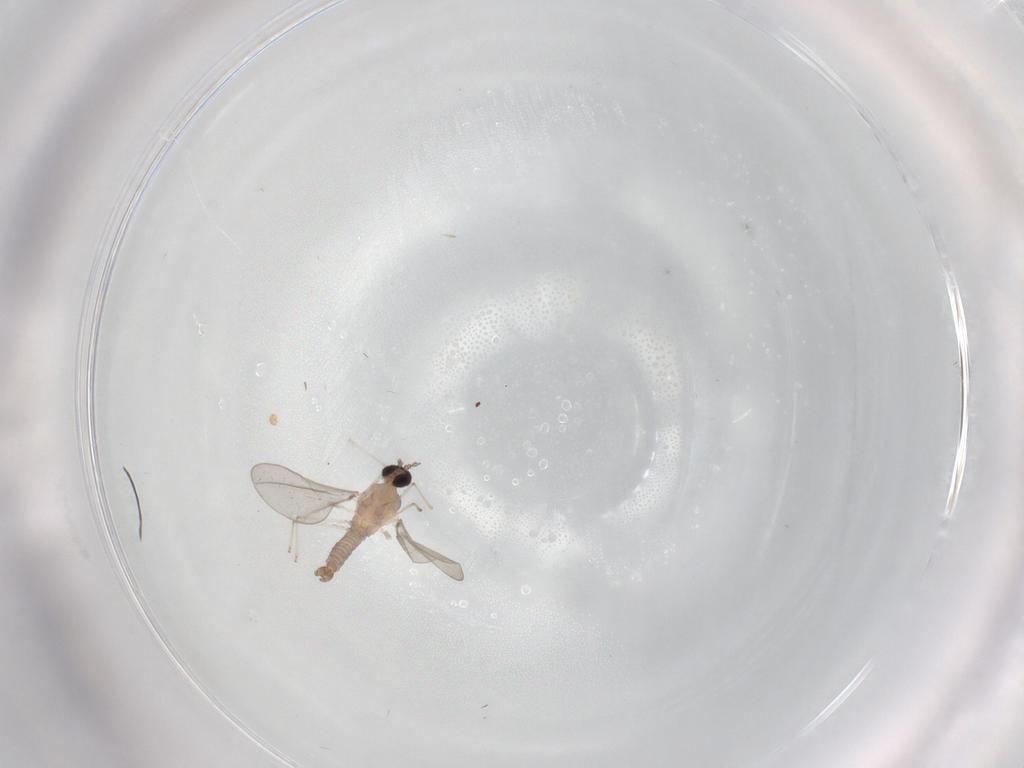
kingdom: Animalia
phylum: Arthropoda
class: Insecta
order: Diptera
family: Cecidomyiidae
